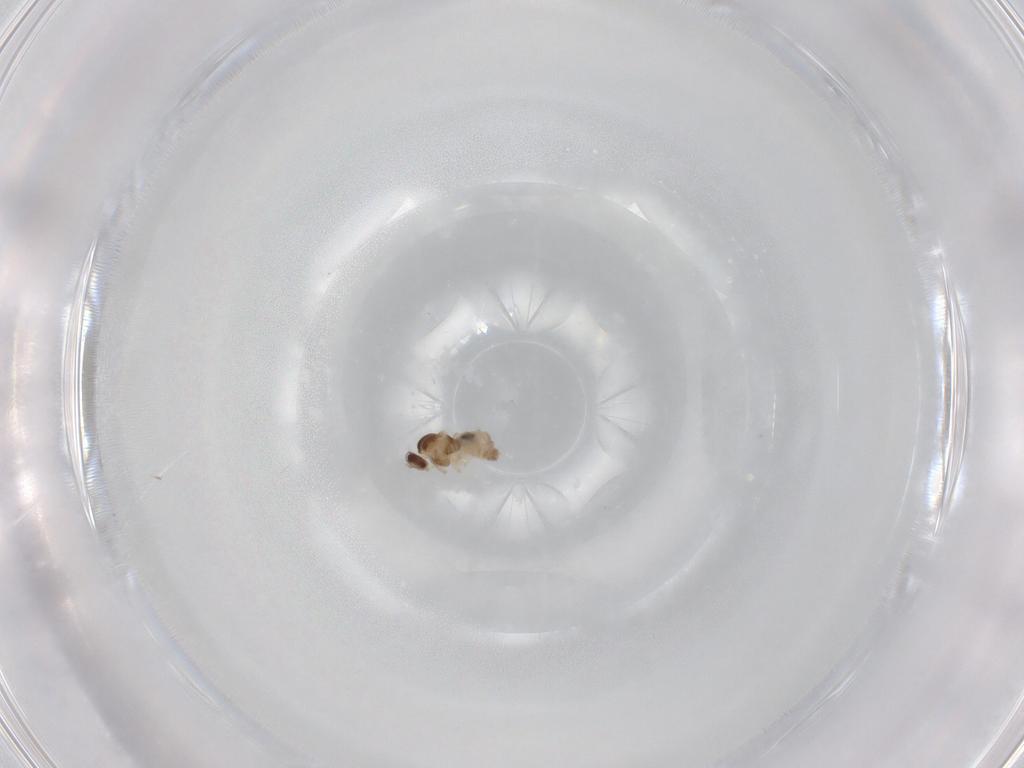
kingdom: Animalia
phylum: Arthropoda
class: Insecta
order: Diptera
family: Cecidomyiidae
